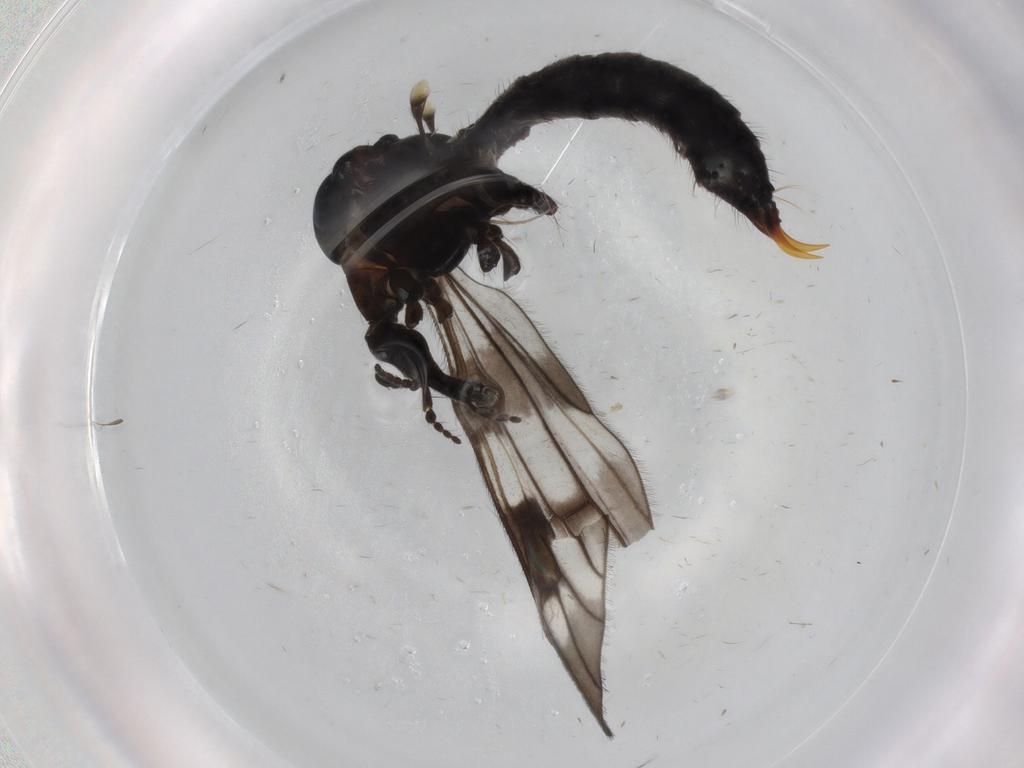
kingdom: Animalia
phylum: Arthropoda
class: Insecta
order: Diptera
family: Limoniidae
